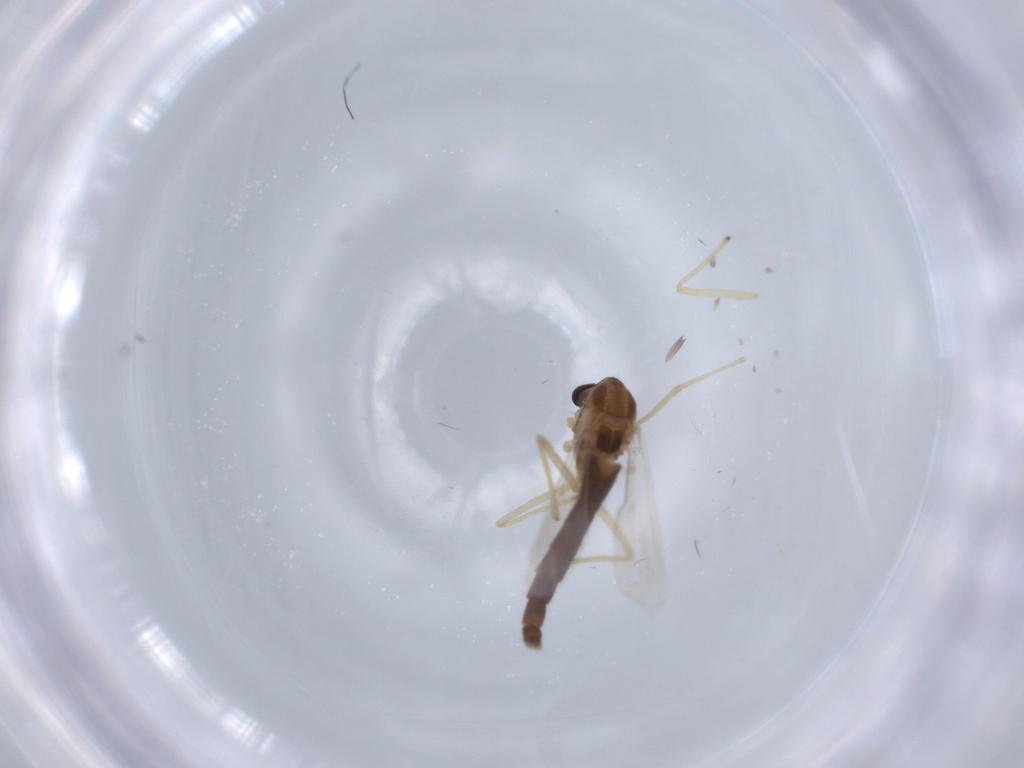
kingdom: Animalia
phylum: Arthropoda
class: Insecta
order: Diptera
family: Chironomidae
